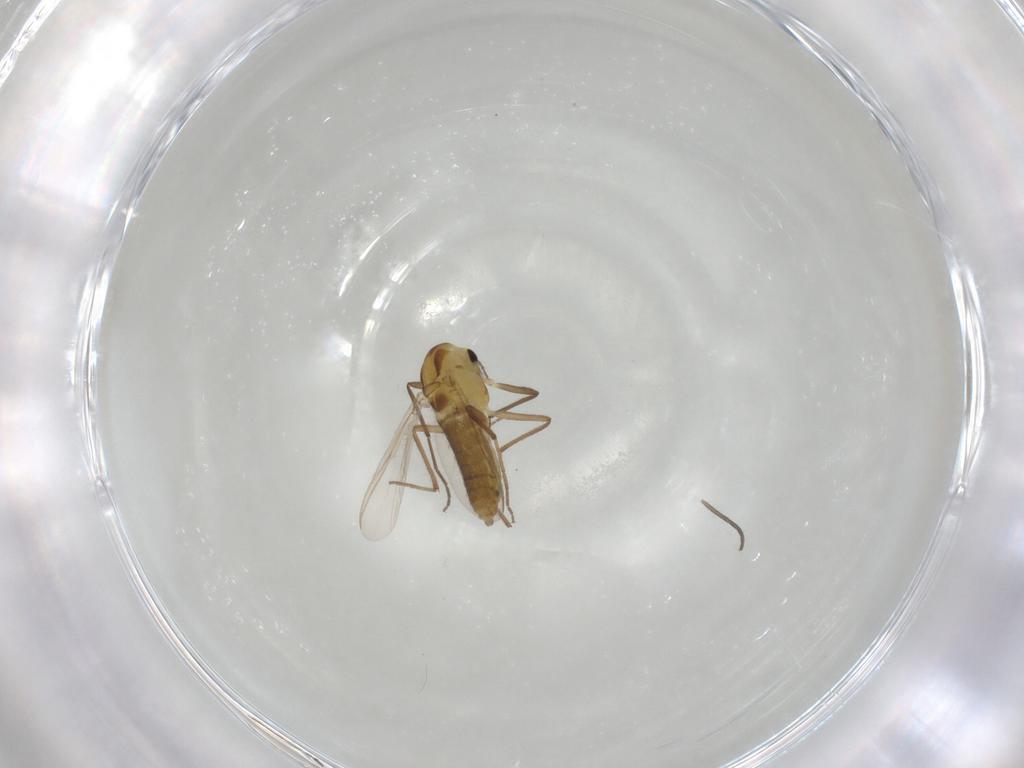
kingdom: Animalia
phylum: Arthropoda
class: Insecta
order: Diptera
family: Chironomidae
